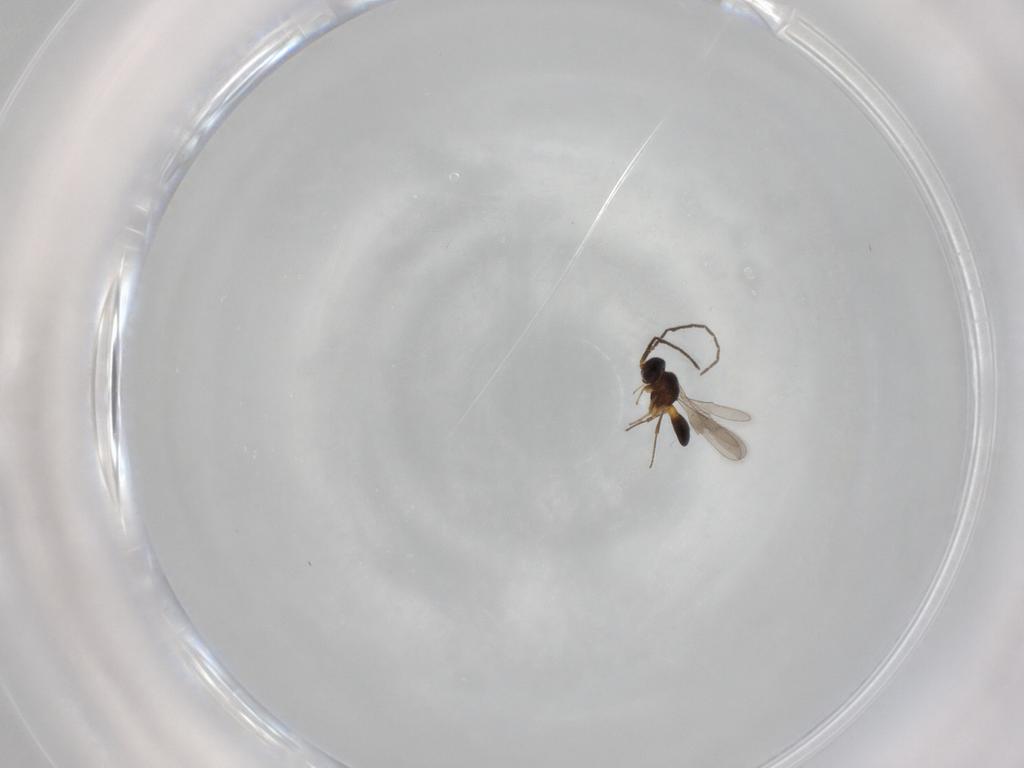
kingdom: Animalia
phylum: Arthropoda
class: Insecta
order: Hymenoptera
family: Scelionidae
